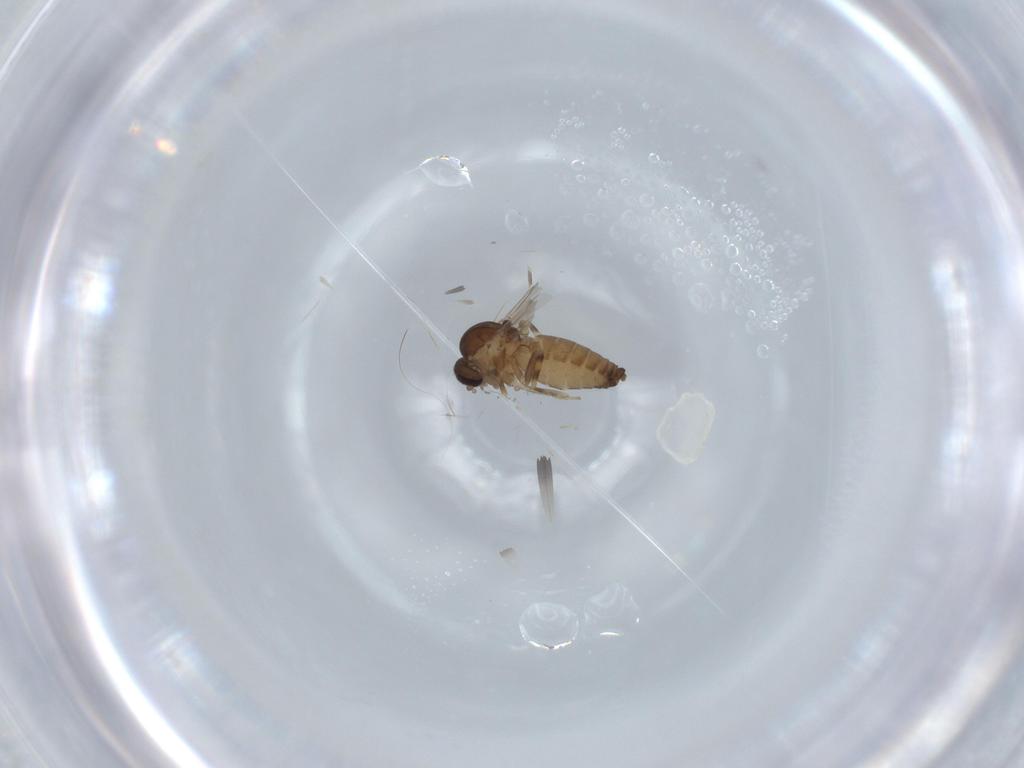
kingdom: Animalia
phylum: Arthropoda
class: Insecta
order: Diptera
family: Ceratopogonidae
